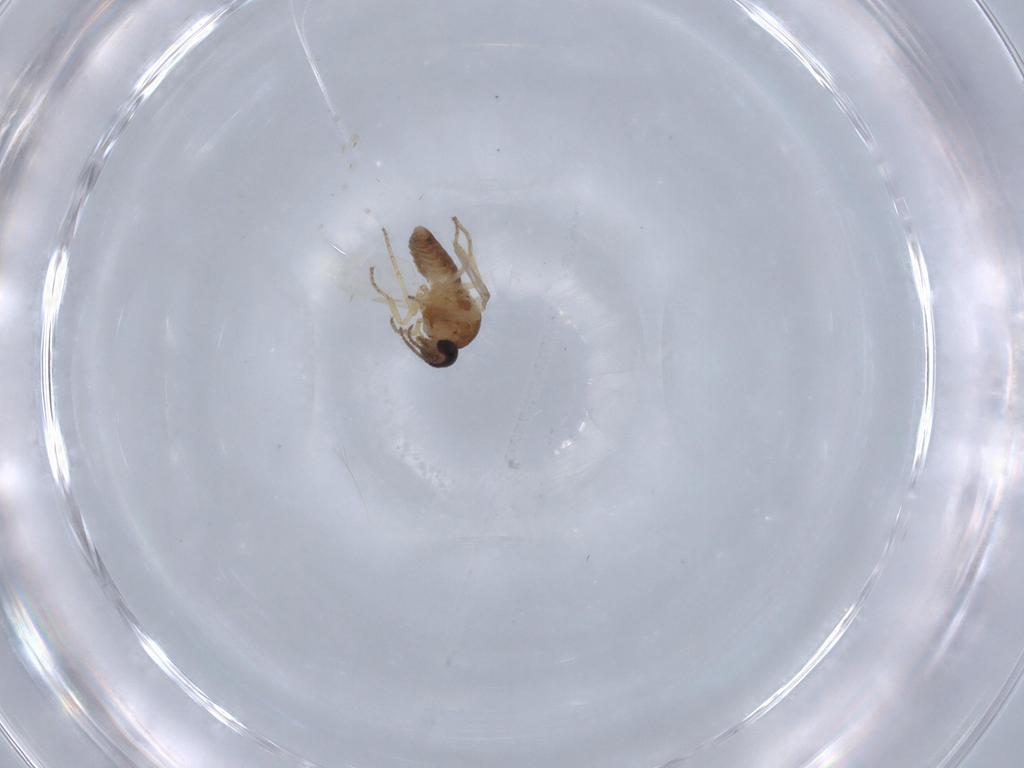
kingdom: Animalia
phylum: Arthropoda
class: Insecta
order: Diptera
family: Ceratopogonidae
